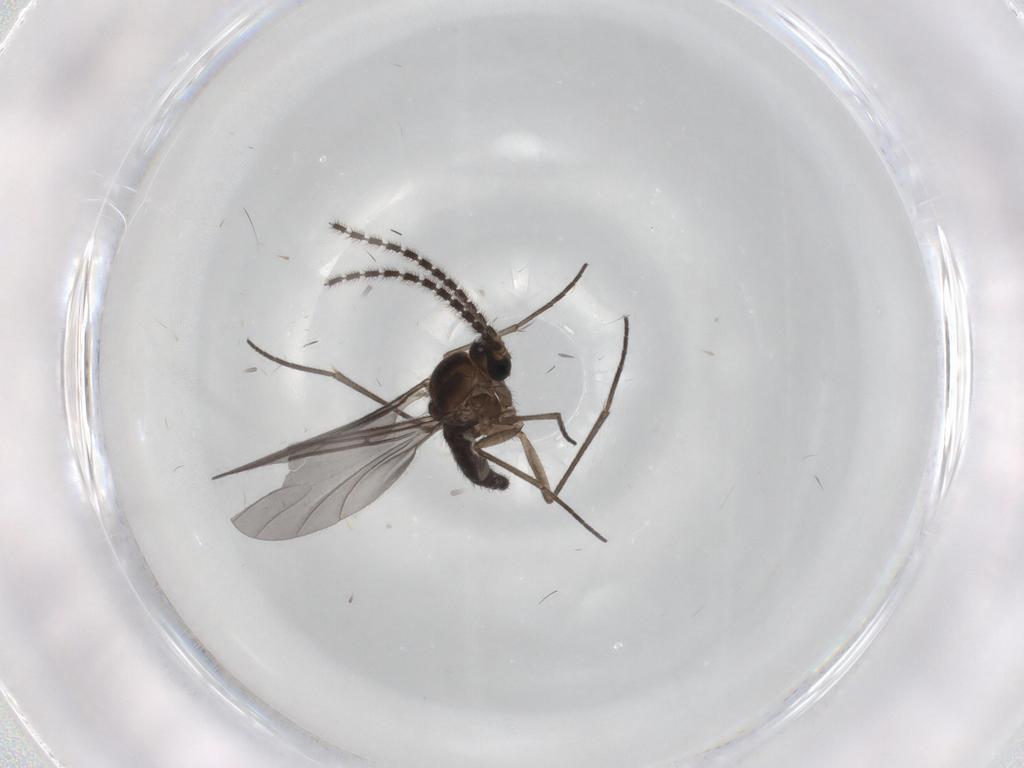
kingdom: Animalia
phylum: Arthropoda
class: Insecta
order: Diptera
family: Sciaridae
